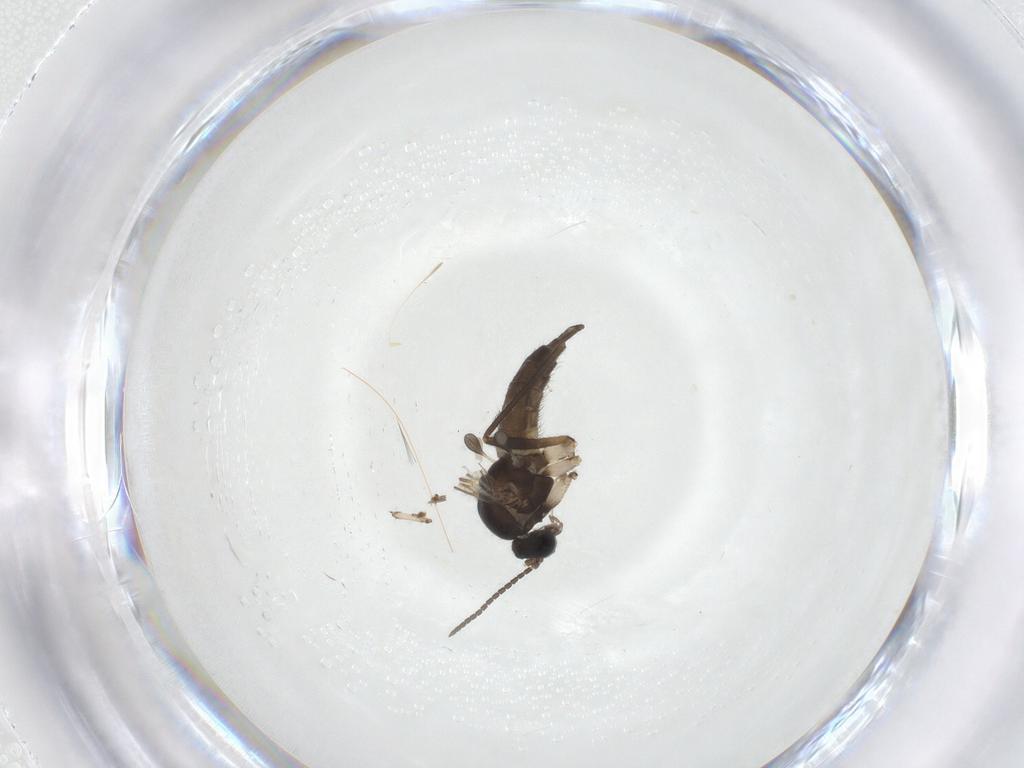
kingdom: Animalia
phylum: Arthropoda
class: Insecta
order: Diptera
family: Sciaridae
